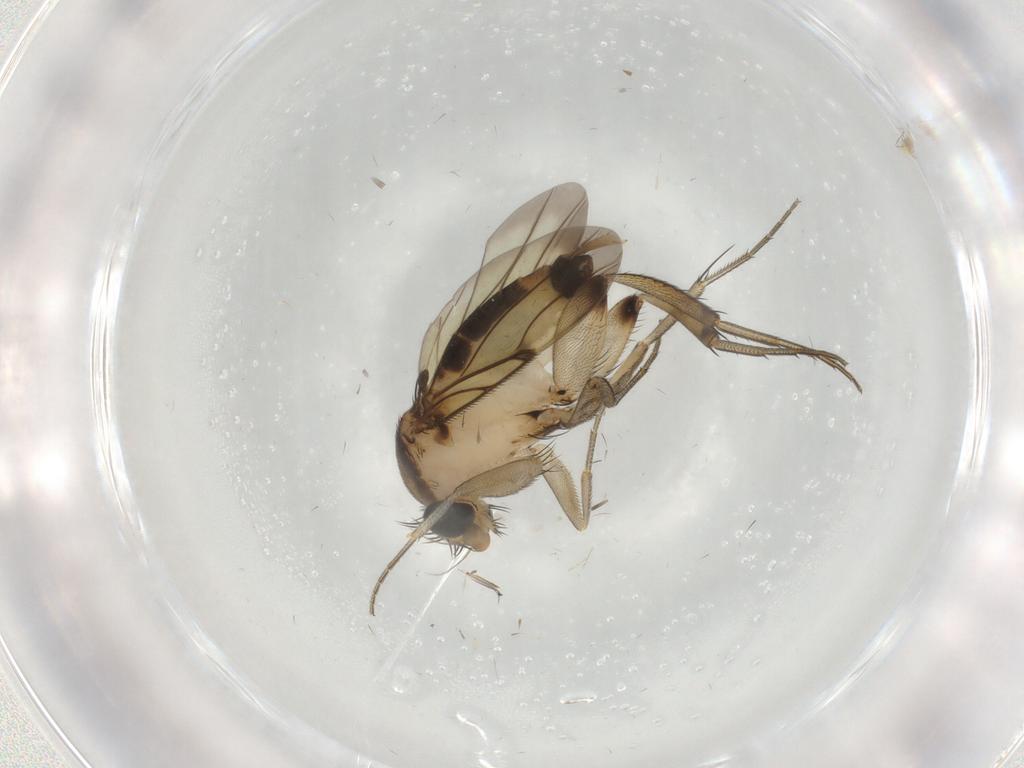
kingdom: Animalia
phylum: Arthropoda
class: Insecta
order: Diptera
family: Phoridae
